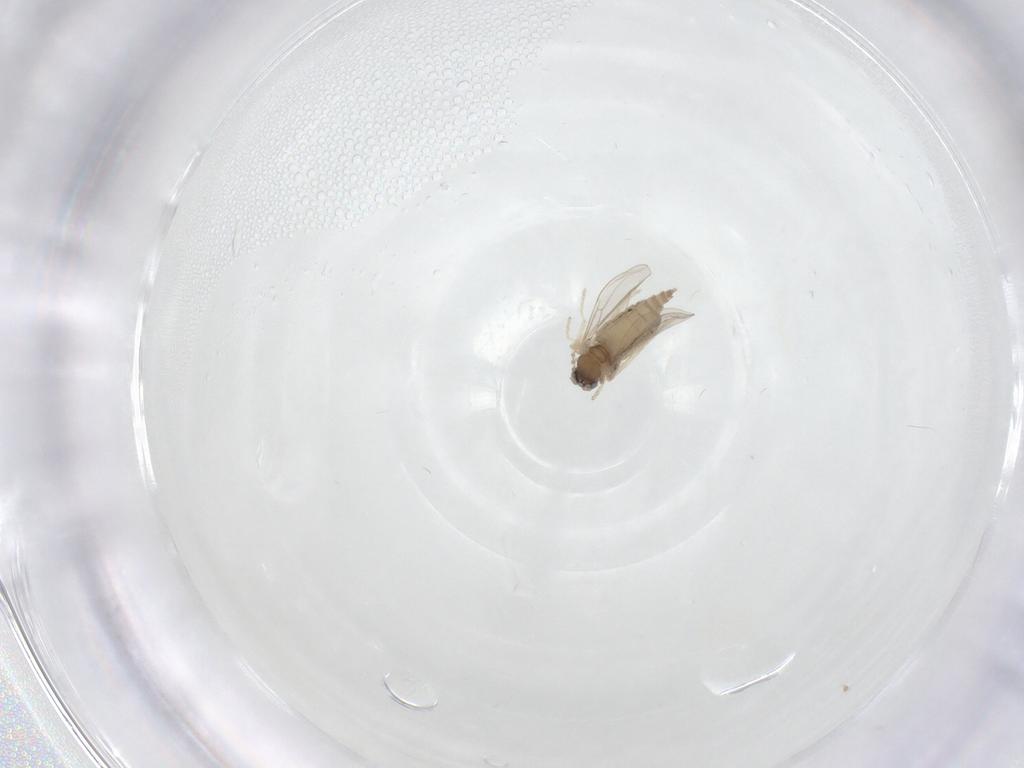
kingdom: Animalia
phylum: Arthropoda
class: Insecta
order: Diptera
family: Cecidomyiidae
